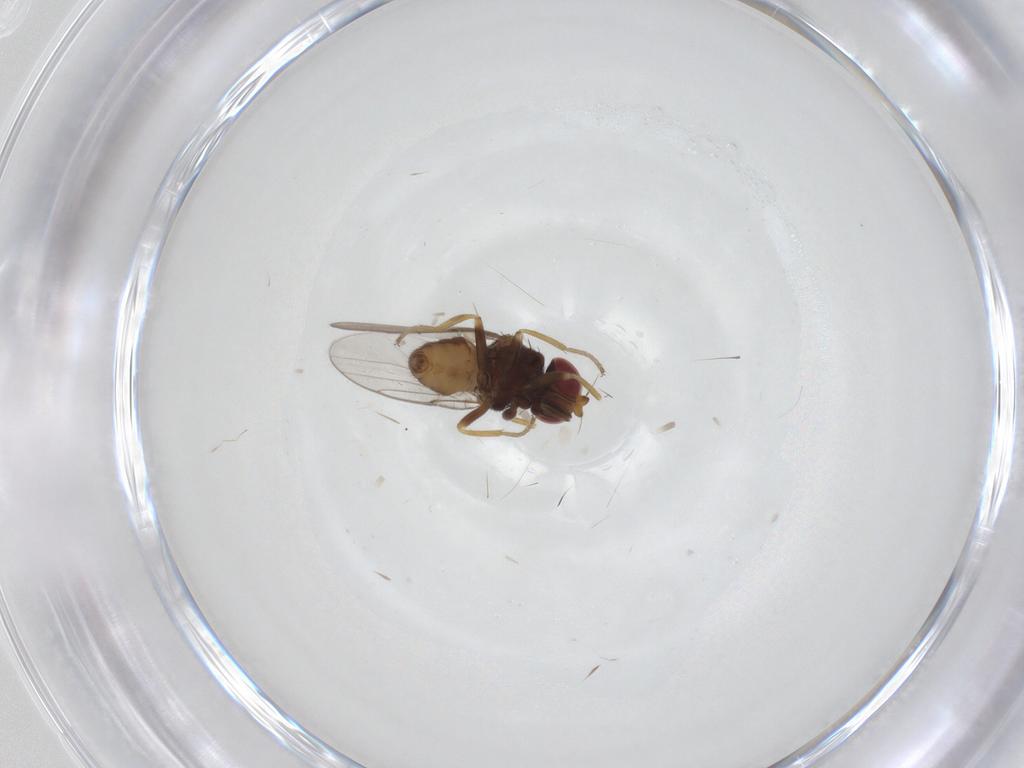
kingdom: Animalia
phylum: Arthropoda
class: Insecta
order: Diptera
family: Chloropidae
